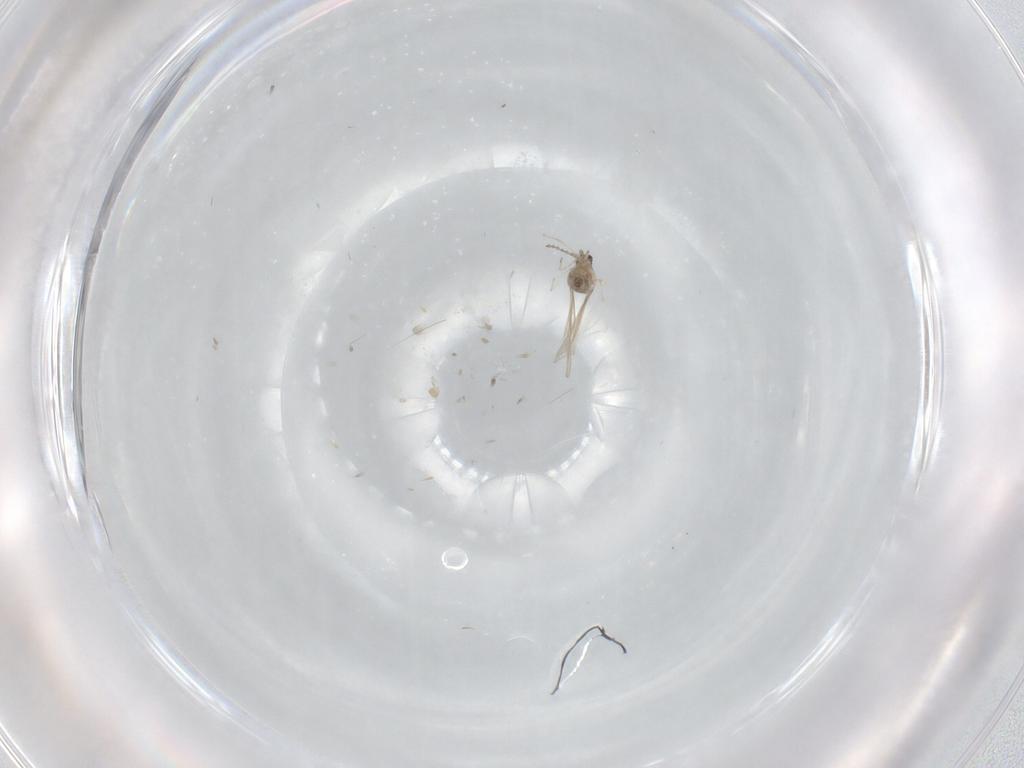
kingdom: Animalia
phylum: Arthropoda
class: Insecta
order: Diptera
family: Cecidomyiidae
